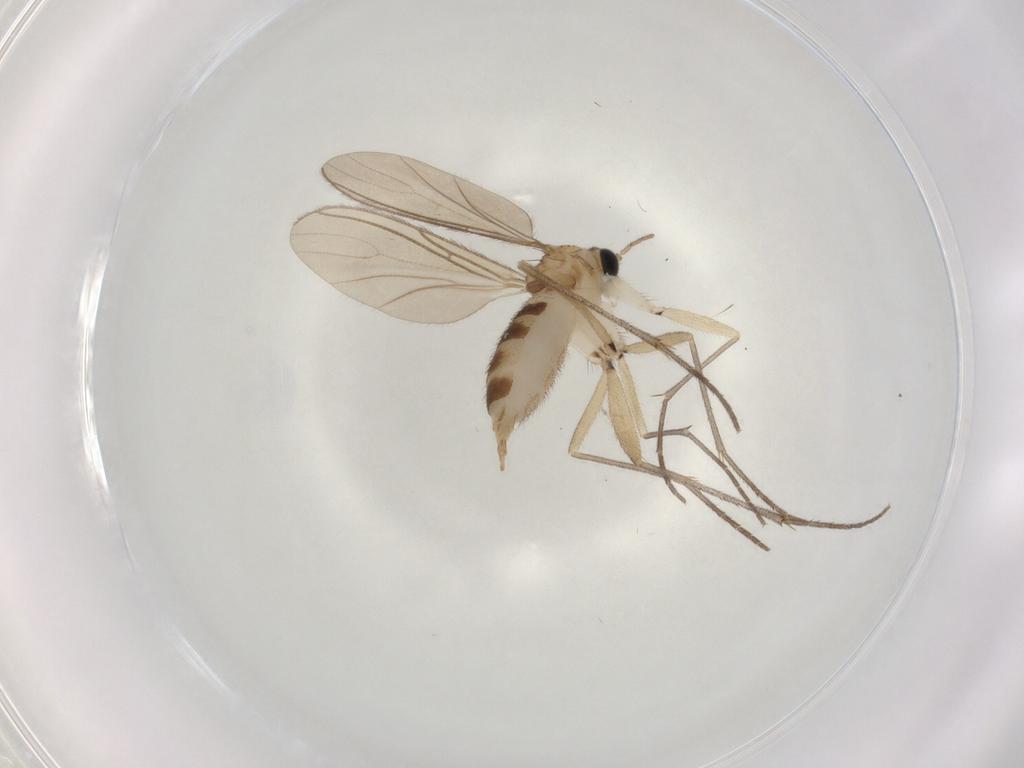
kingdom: Animalia
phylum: Arthropoda
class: Insecta
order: Diptera
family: Sciaridae
